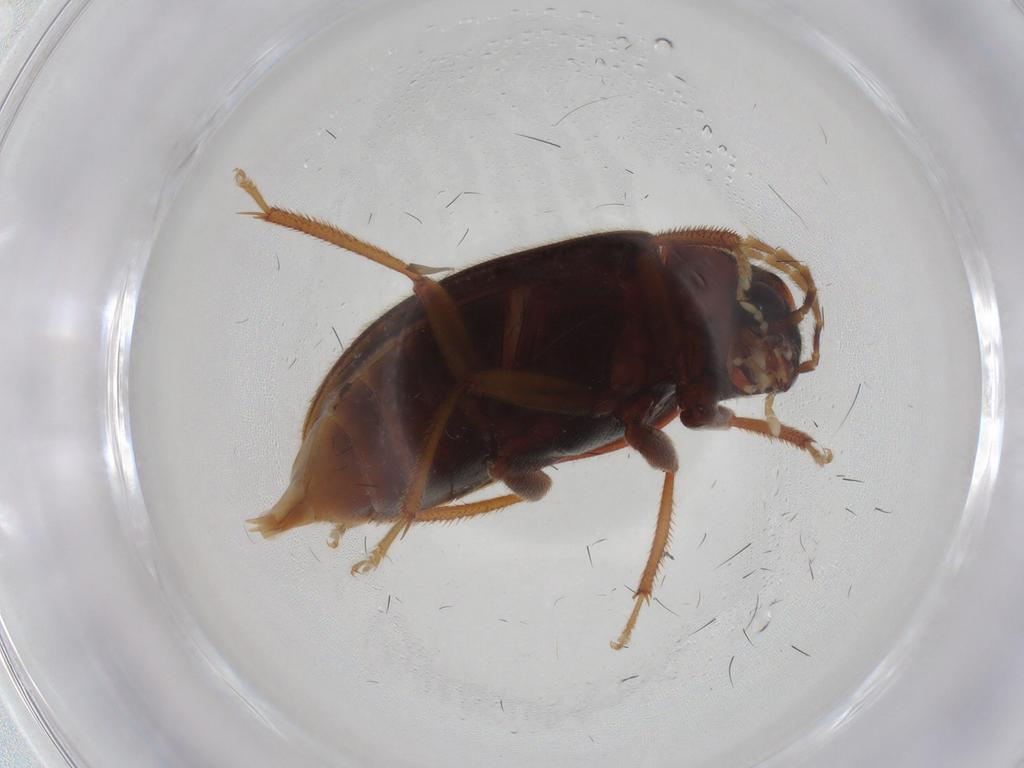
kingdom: Animalia
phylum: Arthropoda
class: Insecta
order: Coleoptera
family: Ptilodactylidae
